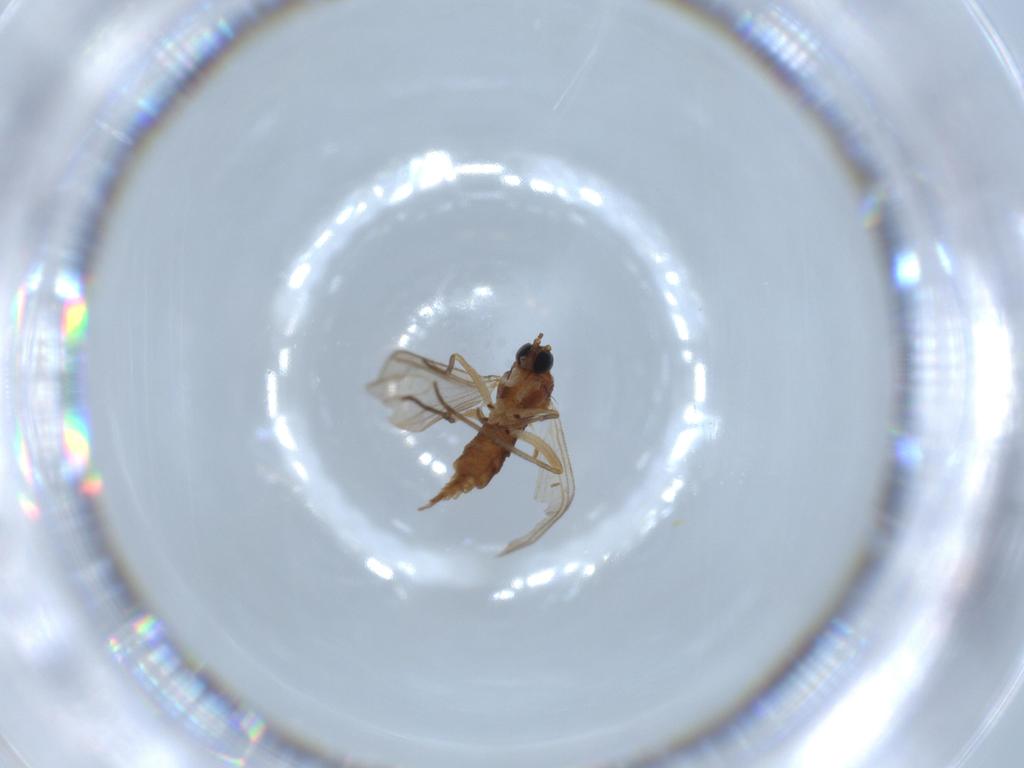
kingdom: Animalia
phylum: Arthropoda
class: Insecta
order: Diptera
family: Sciaridae
